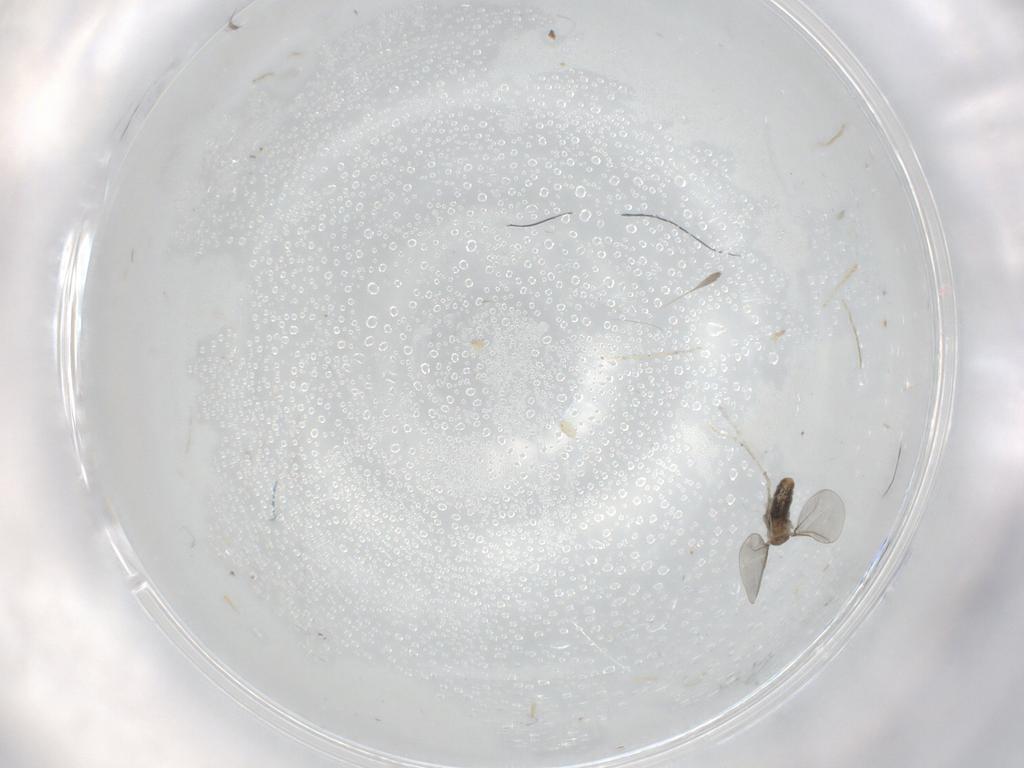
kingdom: Animalia
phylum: Arthropoda
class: Insecta
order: Diptera
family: Cecidomyiidae
